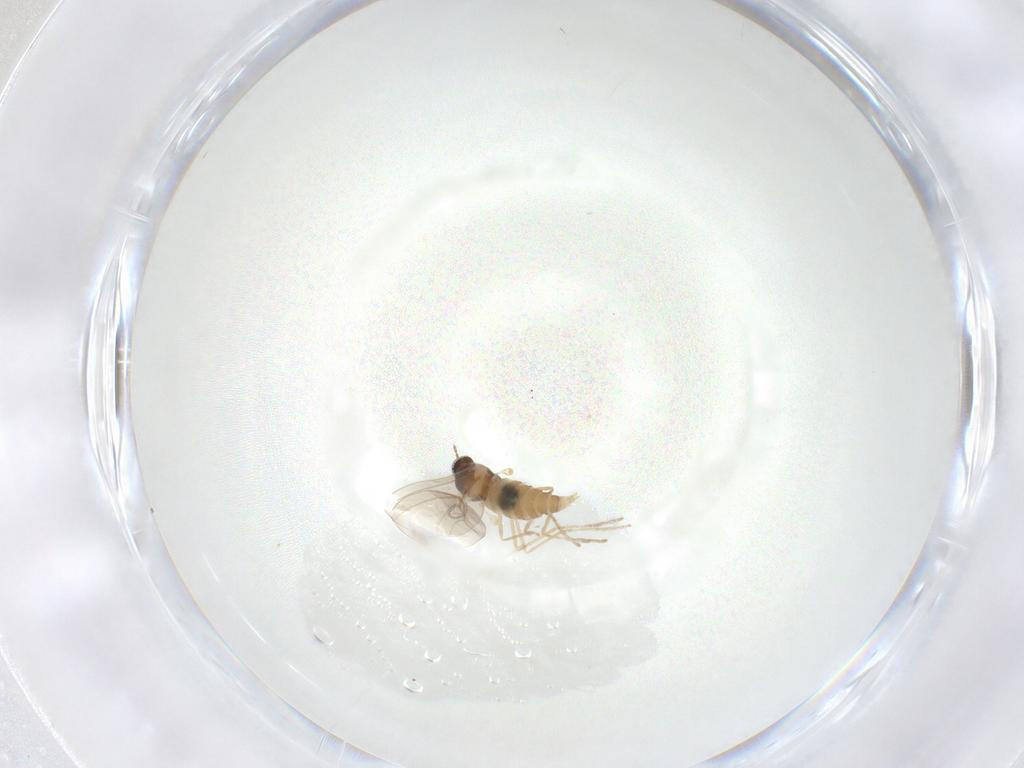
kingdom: Animalia
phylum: Arthropoda
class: Insecta
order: Diptera
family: Cecidomyiidae
